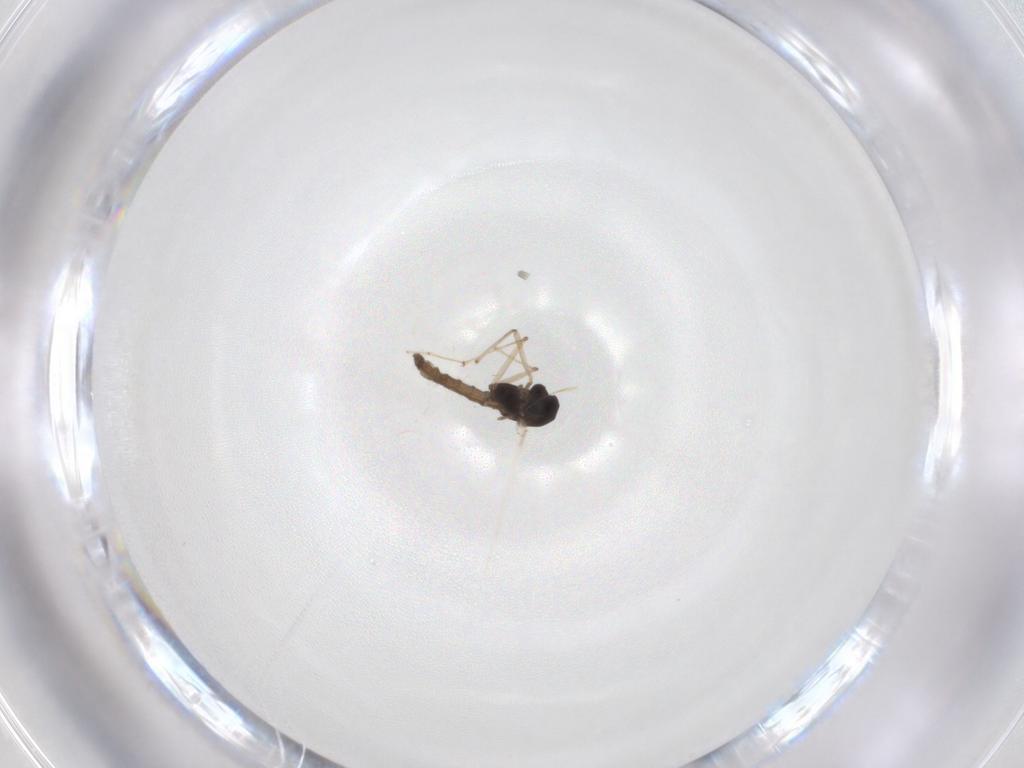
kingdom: Animalia
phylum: Arthropoda
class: Insecta
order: Diptera
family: Chironomidae
